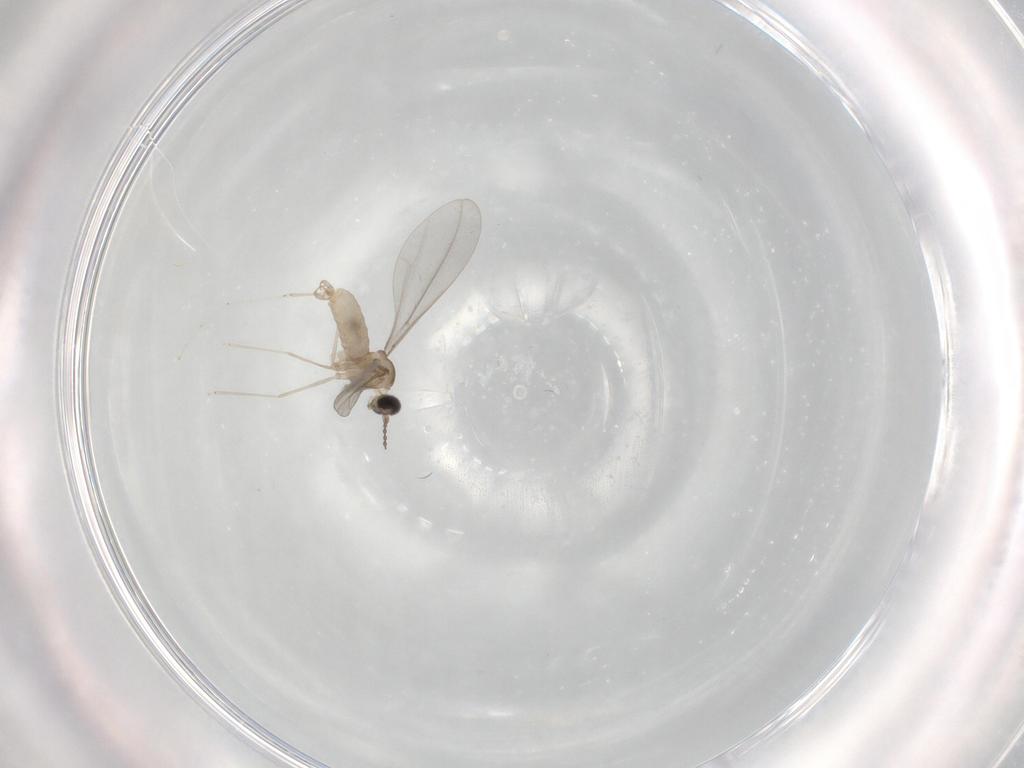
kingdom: Animalia
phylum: Arthropoda
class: Insecta
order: Diptera
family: Cecidomyiidae
